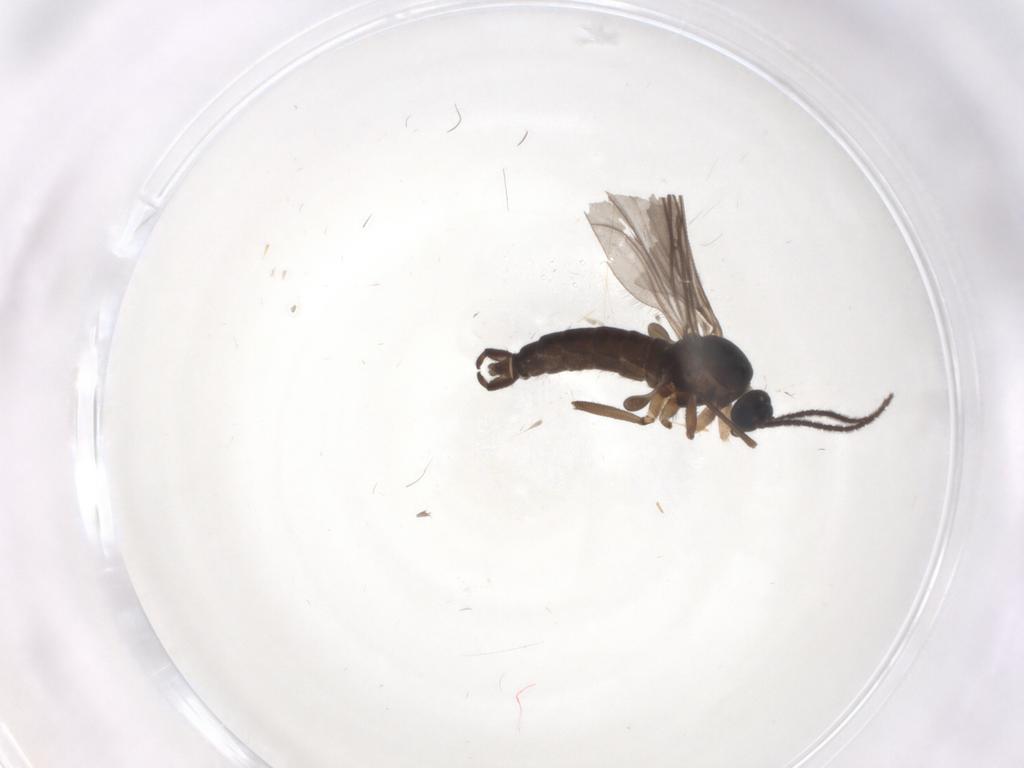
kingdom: Animalia
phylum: Arthropoda
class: Insecta
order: Diptera
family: Sciaridae
